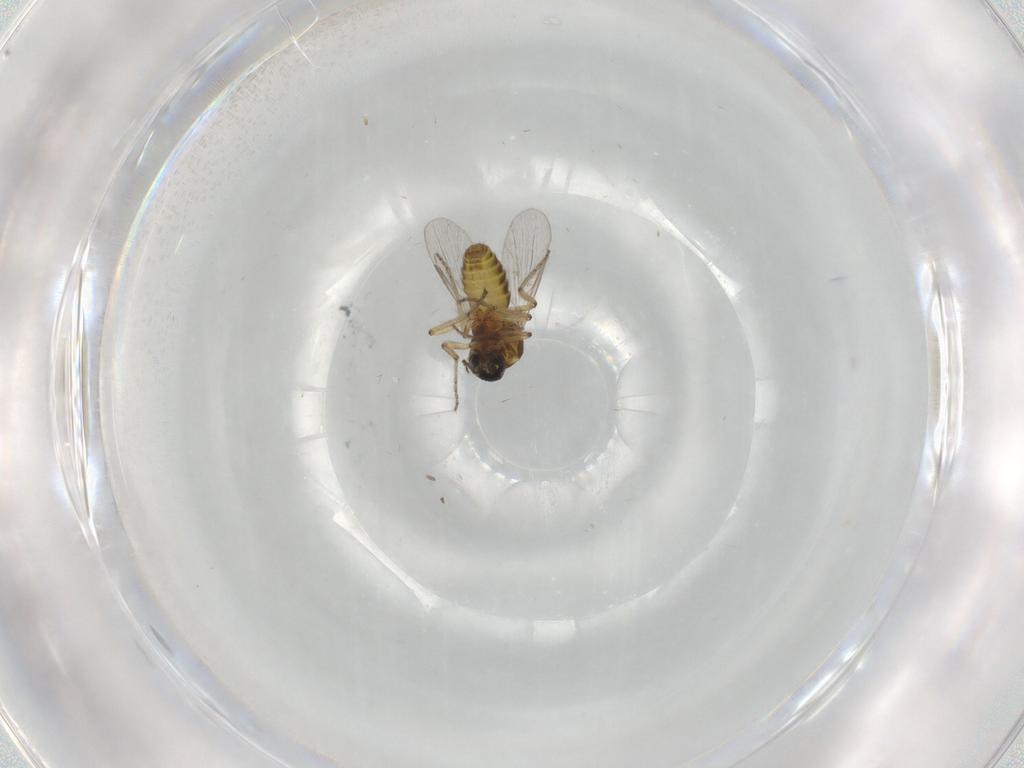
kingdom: Animalia
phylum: Arthropoda
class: Insecta
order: Diptera
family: Ceratopogonidae
